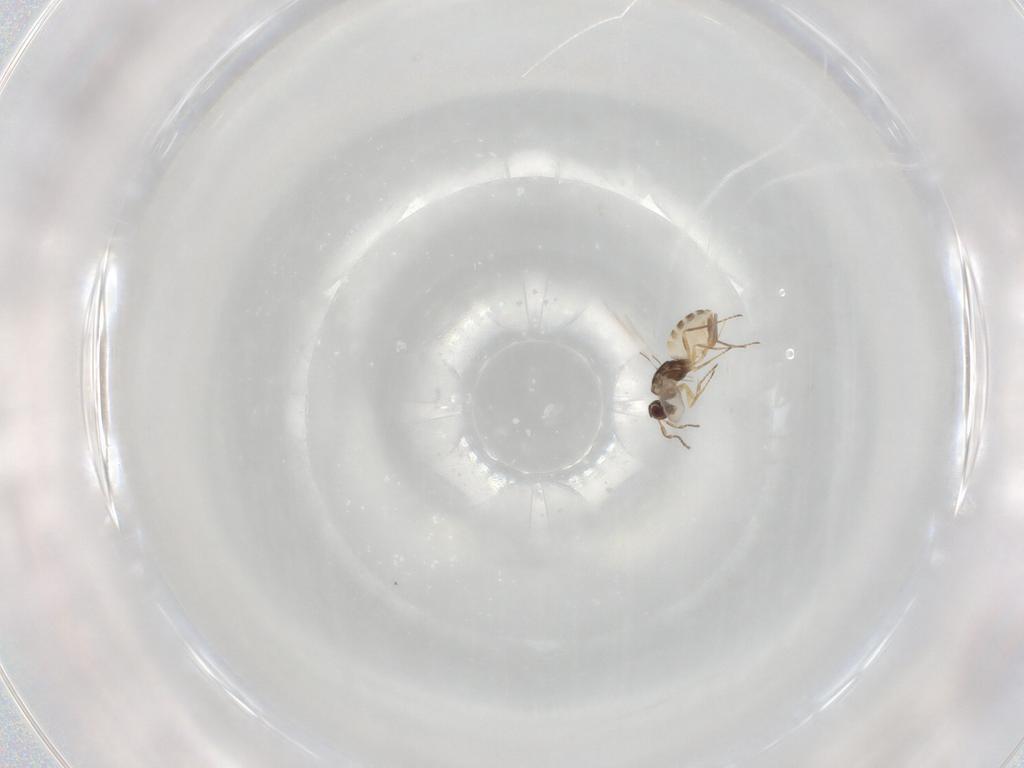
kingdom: Animalia
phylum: Arthropoda
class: Insecta
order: Hymenoptera
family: Mymaridae
